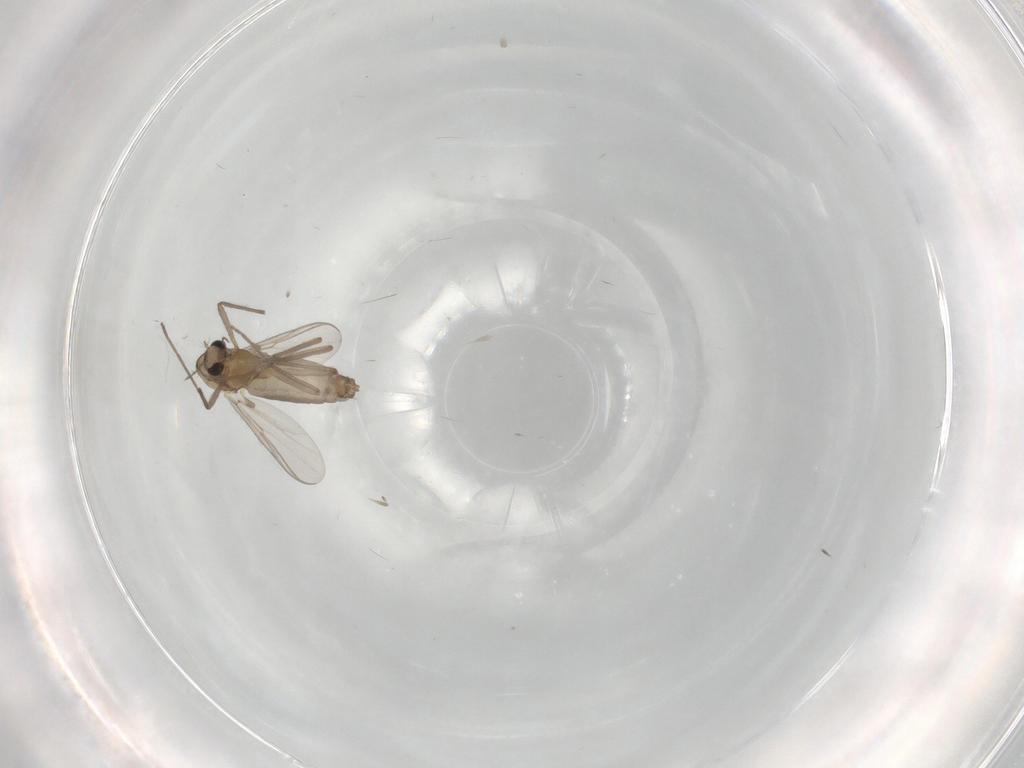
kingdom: Animalia
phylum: Arthropoda
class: Insecta
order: Diptera
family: Chironomidae
